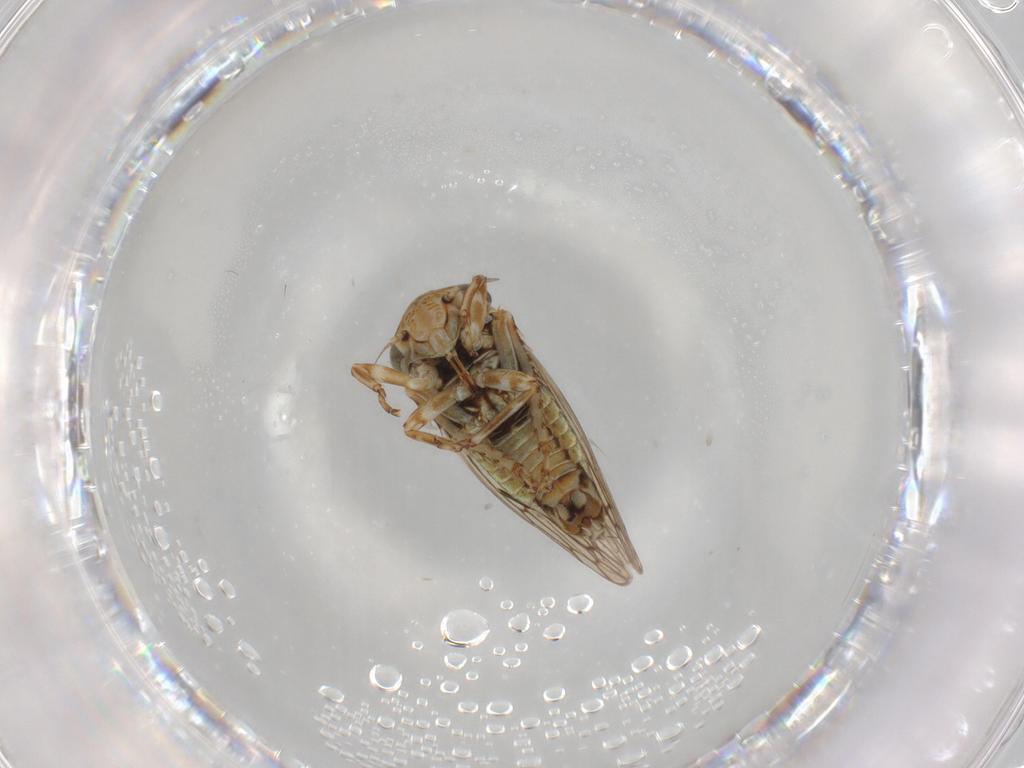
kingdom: Animalia
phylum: Arthropoda
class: Insecta
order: Hemiptera
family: Cicadellidae
